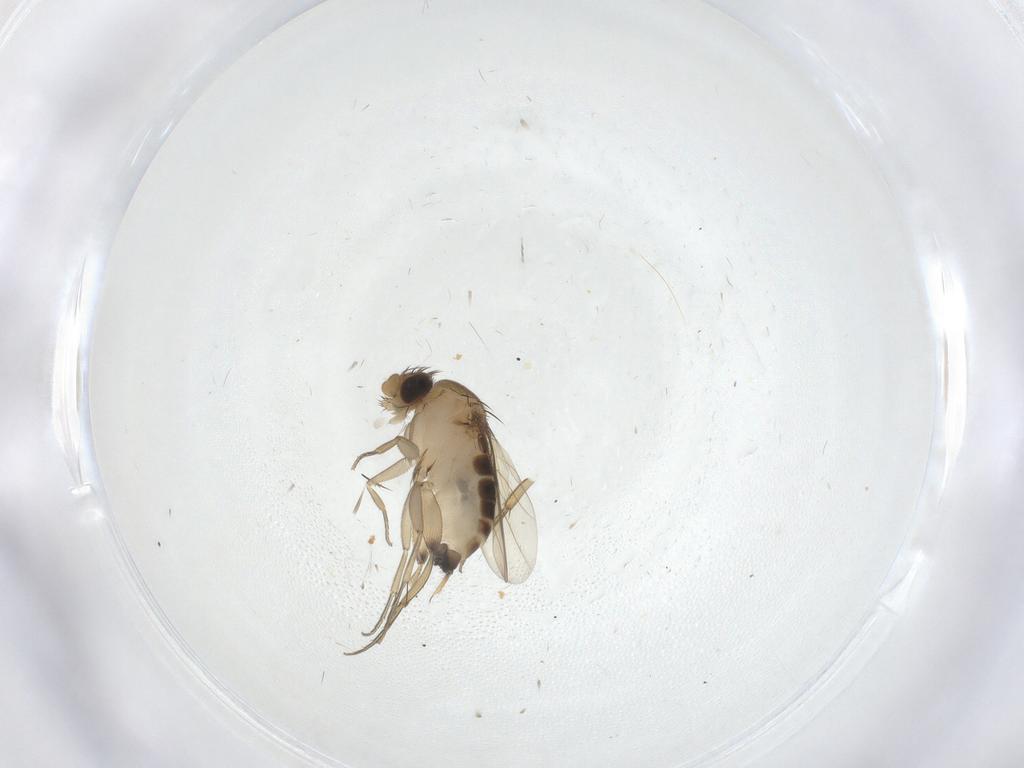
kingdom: Animalia
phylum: Arthropoda
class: Insecta
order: Diptera
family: Phoridae
